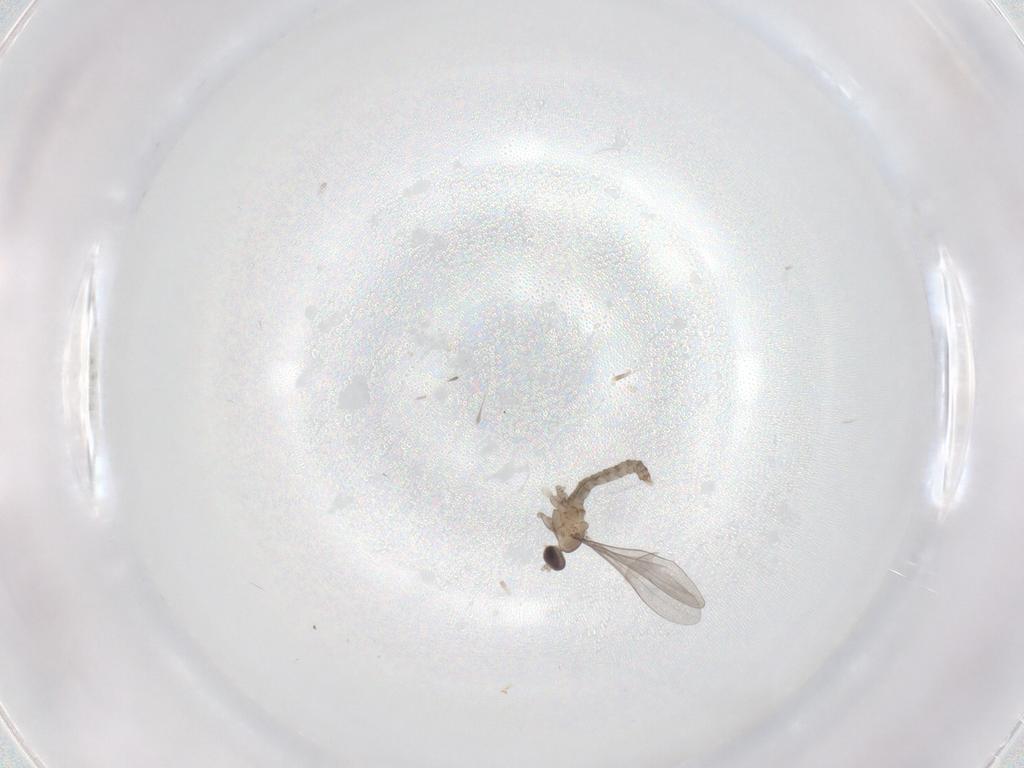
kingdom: Animalia
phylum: Arthropoda
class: Insecta
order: Diptera
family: Cecidomyiidae
